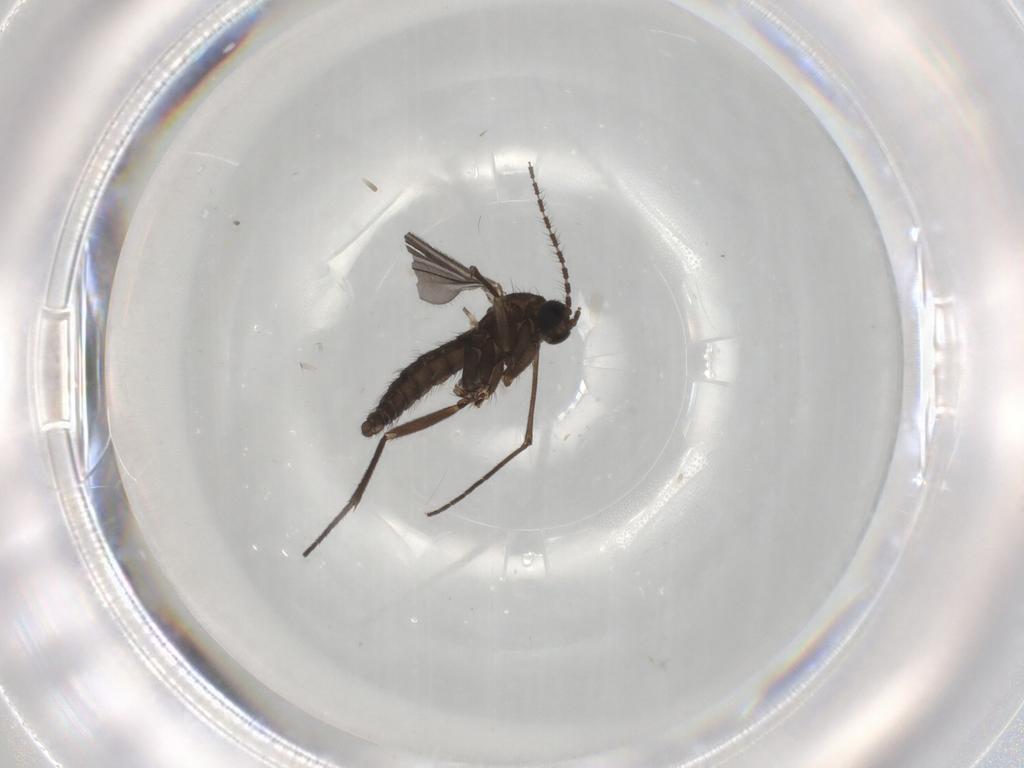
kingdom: Animalia
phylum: Arthropoda
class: Insecta
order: Diptera
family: Sciaridae
